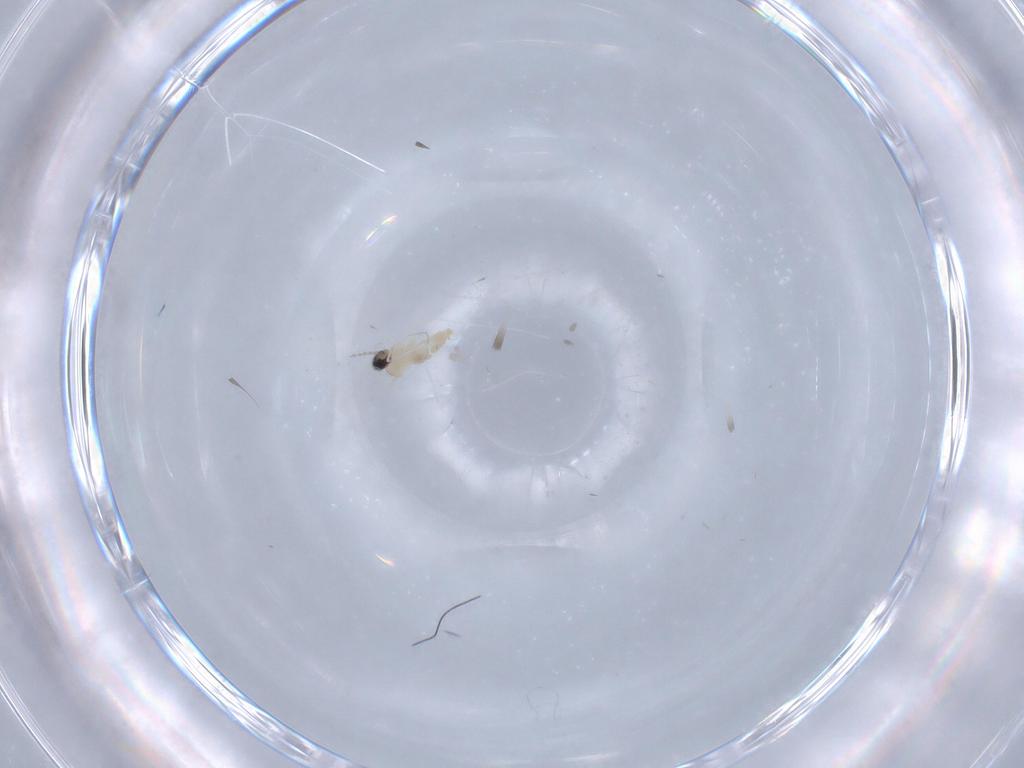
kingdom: Animalia
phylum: Arthropoda
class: Insecta
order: Diptera
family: Cecidomyiidae
